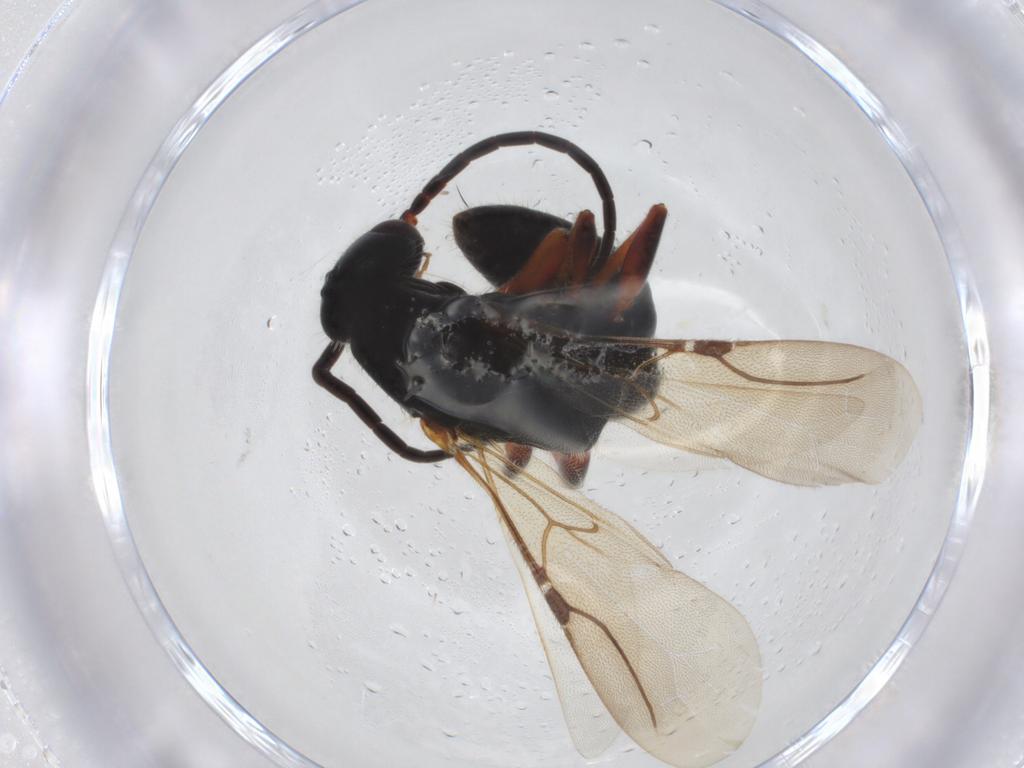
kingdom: Animalia
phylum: Arthropoda
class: Insecta
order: Hymenoptera
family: Bethylidae
